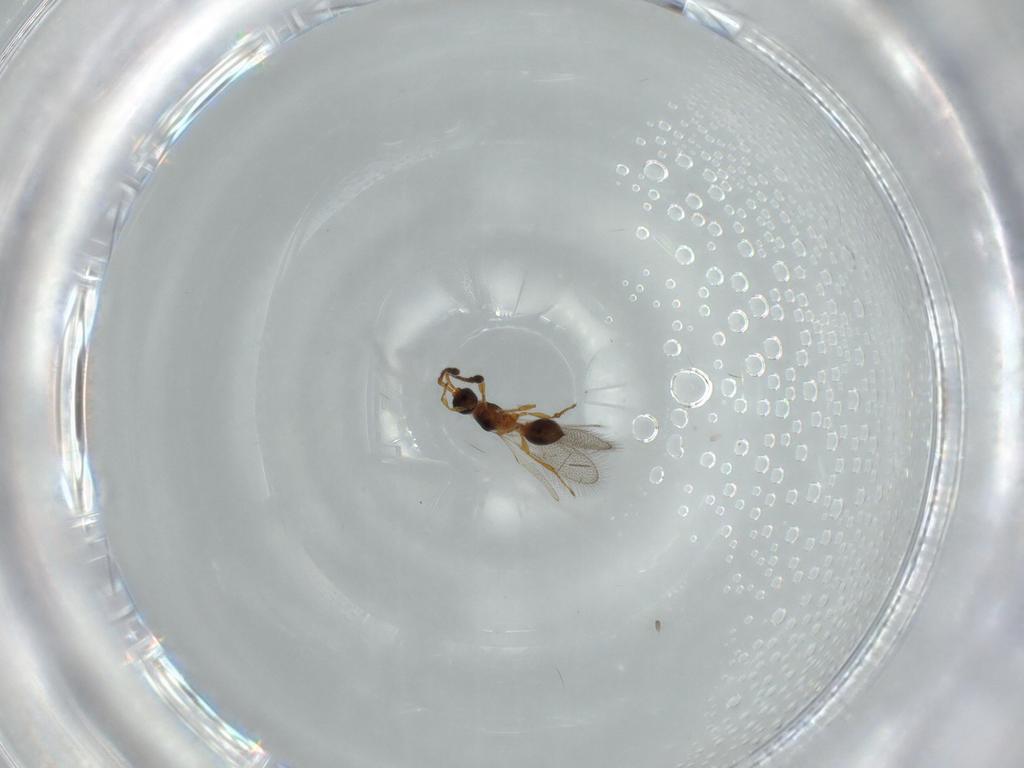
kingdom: Animalia
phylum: Arthropoda
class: Insecta
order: Hymenoptera
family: Diapriidae
